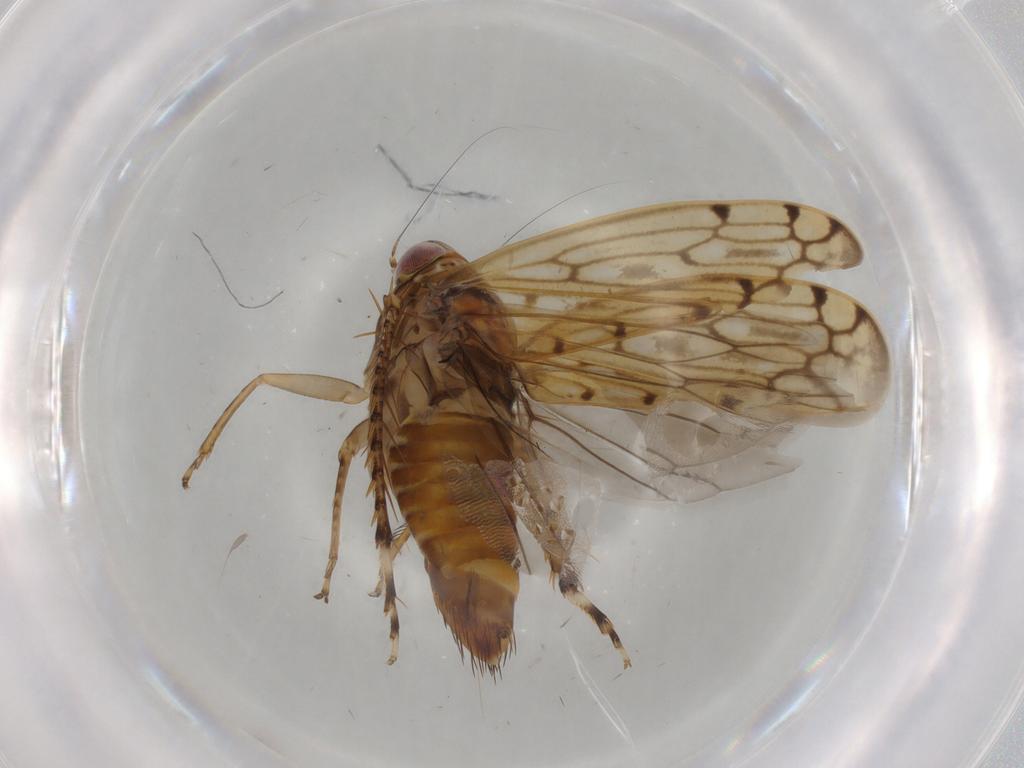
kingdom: Animalia
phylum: Arthropoda
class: Insecta
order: Hemiptera
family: Cicadellidae
